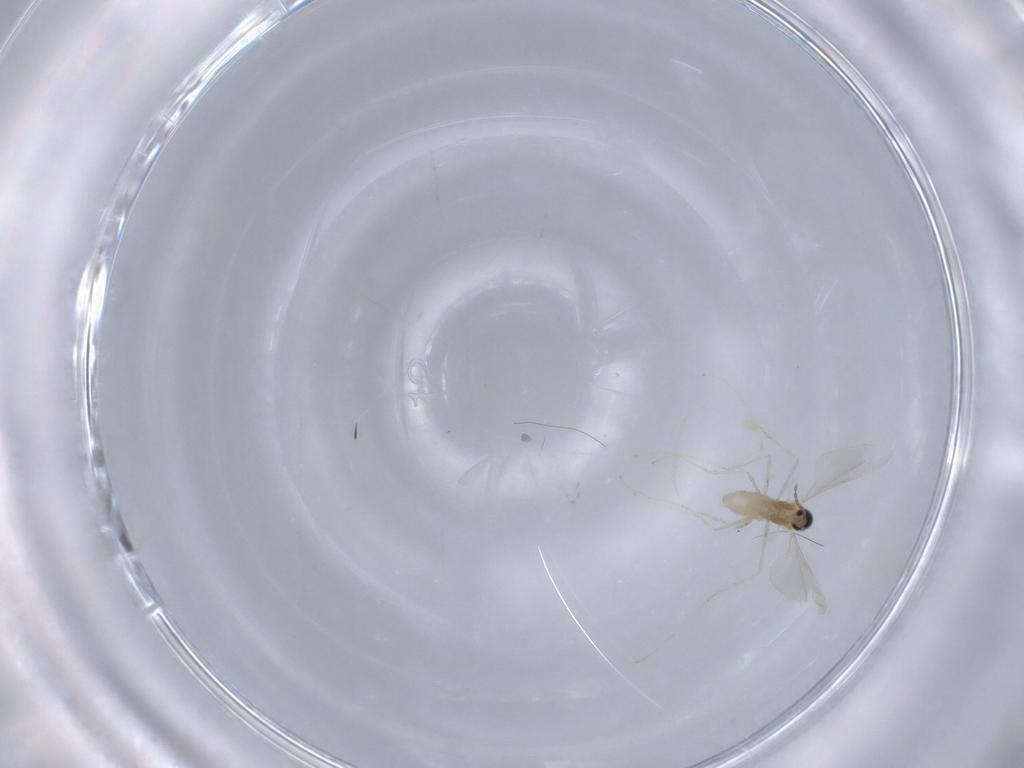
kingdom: Animalia
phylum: Arthropoda
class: Insecta
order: Diptera
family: Cecidomyiidae
